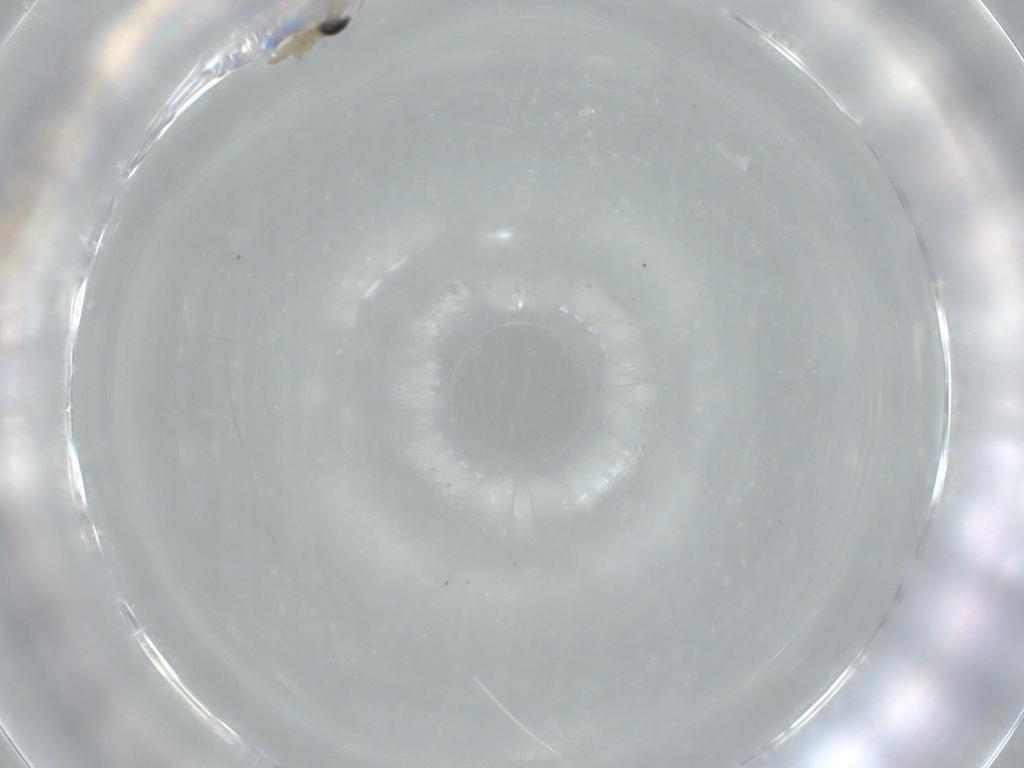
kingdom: Animalia
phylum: Arthropoda
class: Insecta
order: Diptera
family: Cecidomyiidae
